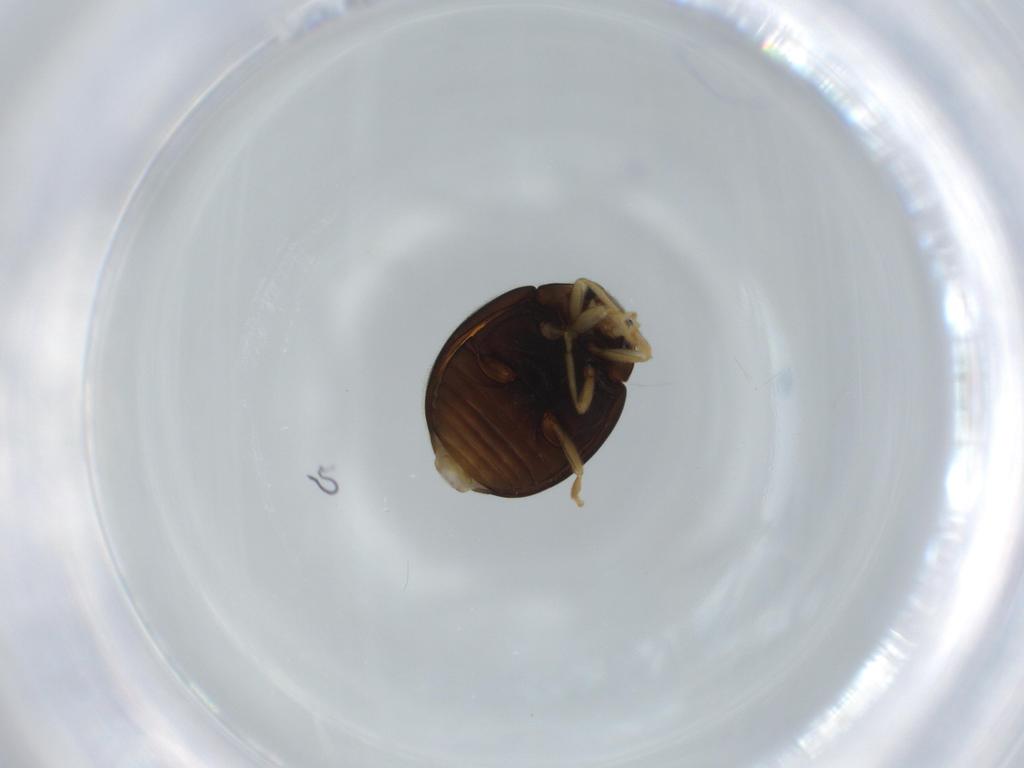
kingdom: Animalia
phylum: Arthropoda
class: Insecta
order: Coleoptera
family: Coccinellidae
